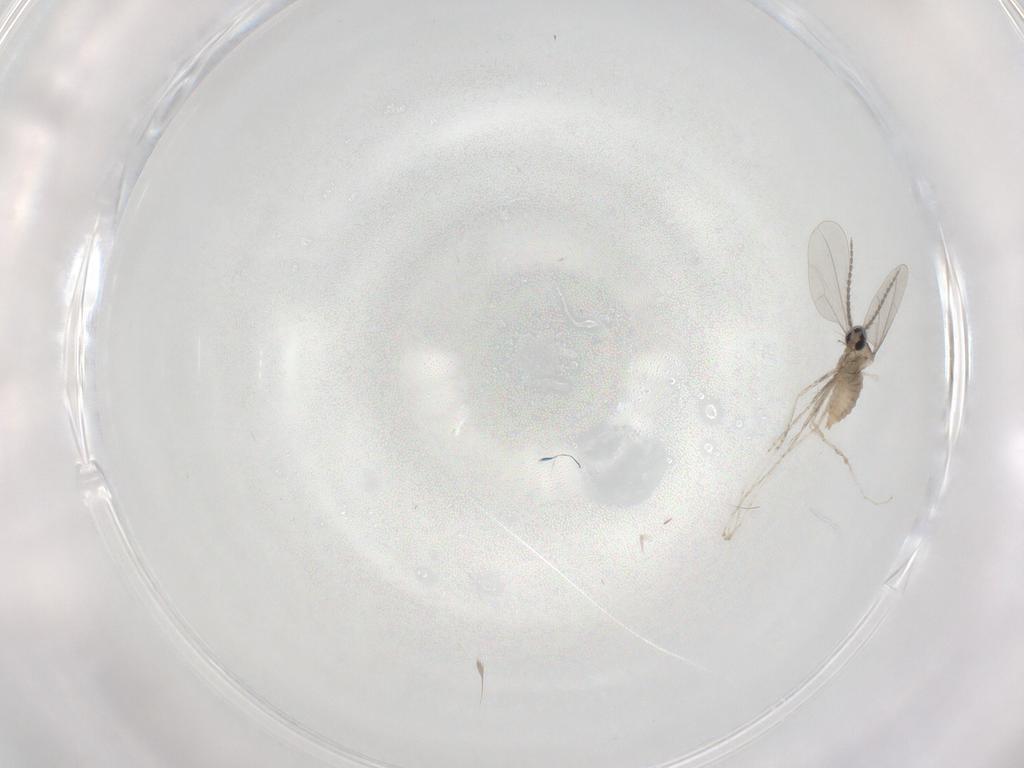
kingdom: Animalia
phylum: Arthropoda
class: Insecta
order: Diptera
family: Cecidomyiidae
